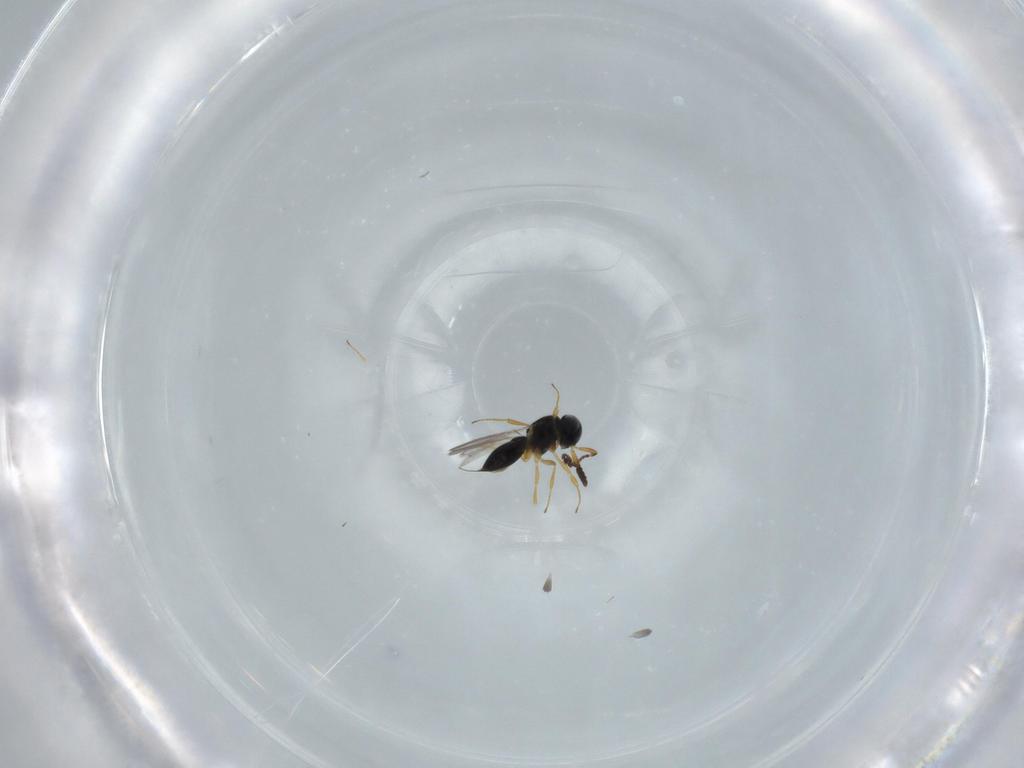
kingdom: Animalia
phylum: Arthropoda
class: Insecta
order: Hymenoptera
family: Scelionidae
